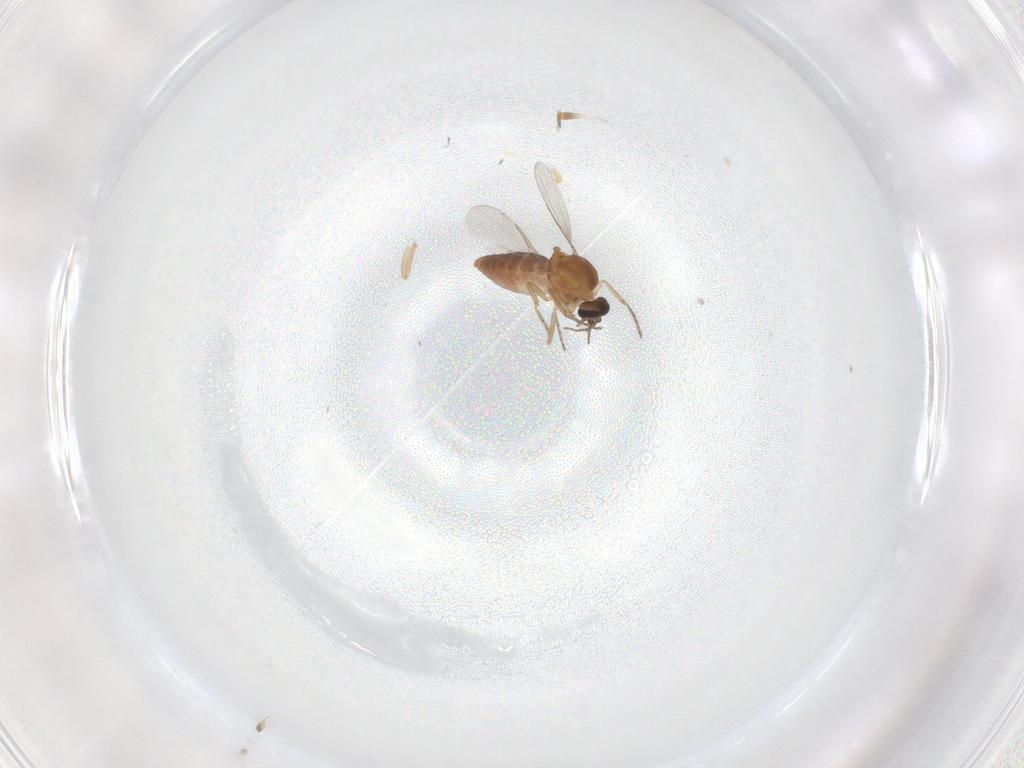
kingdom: Animalia
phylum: Arthropoda
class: Insecta
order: Diptera
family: Ceratopogonidae
